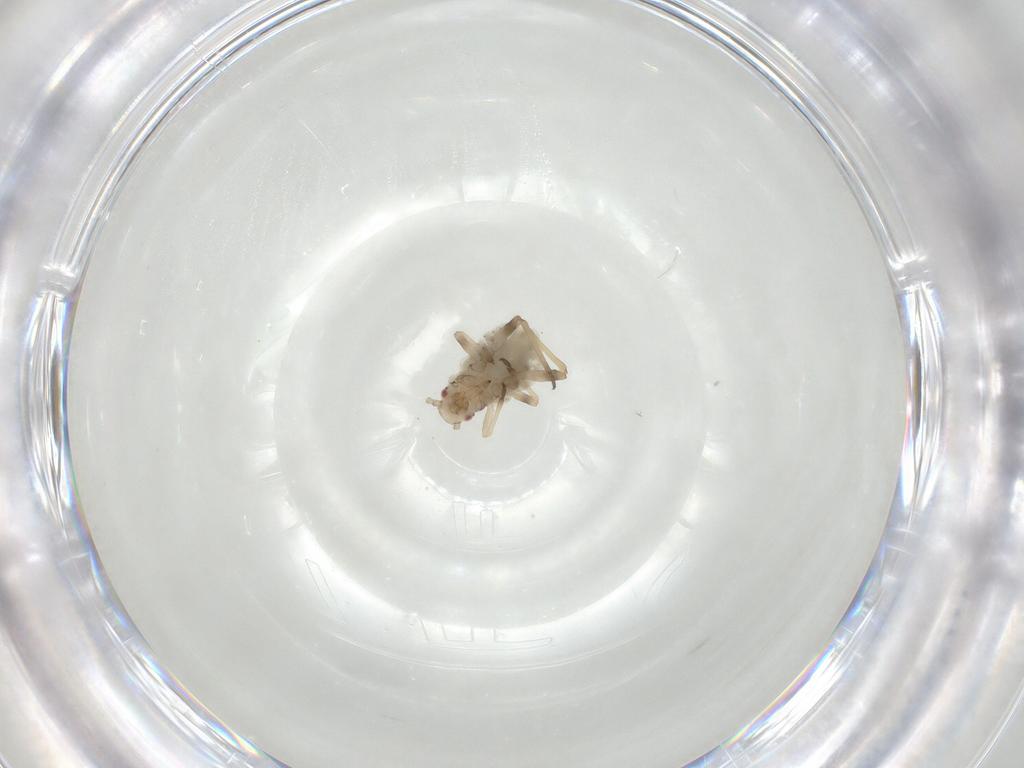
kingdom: Animalia
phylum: Arthropoda
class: Insecta
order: Hemiptera
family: Aphididae
